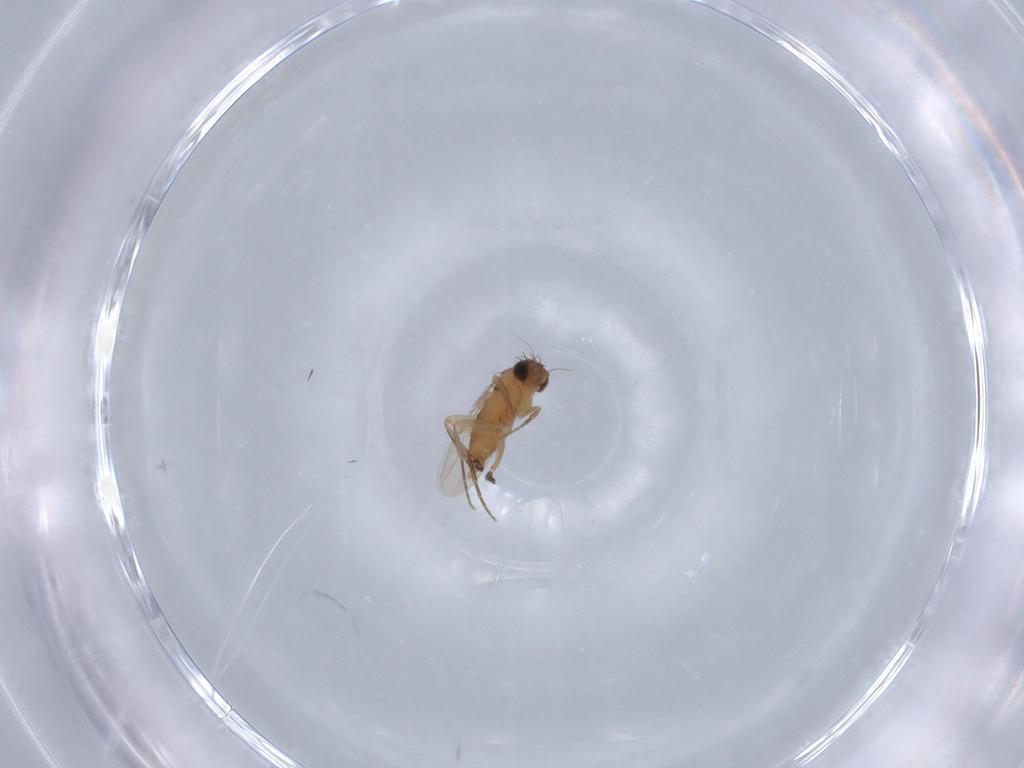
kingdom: Animalia
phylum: Arthropoda
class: Insecta
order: Diptera
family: Phoridae
